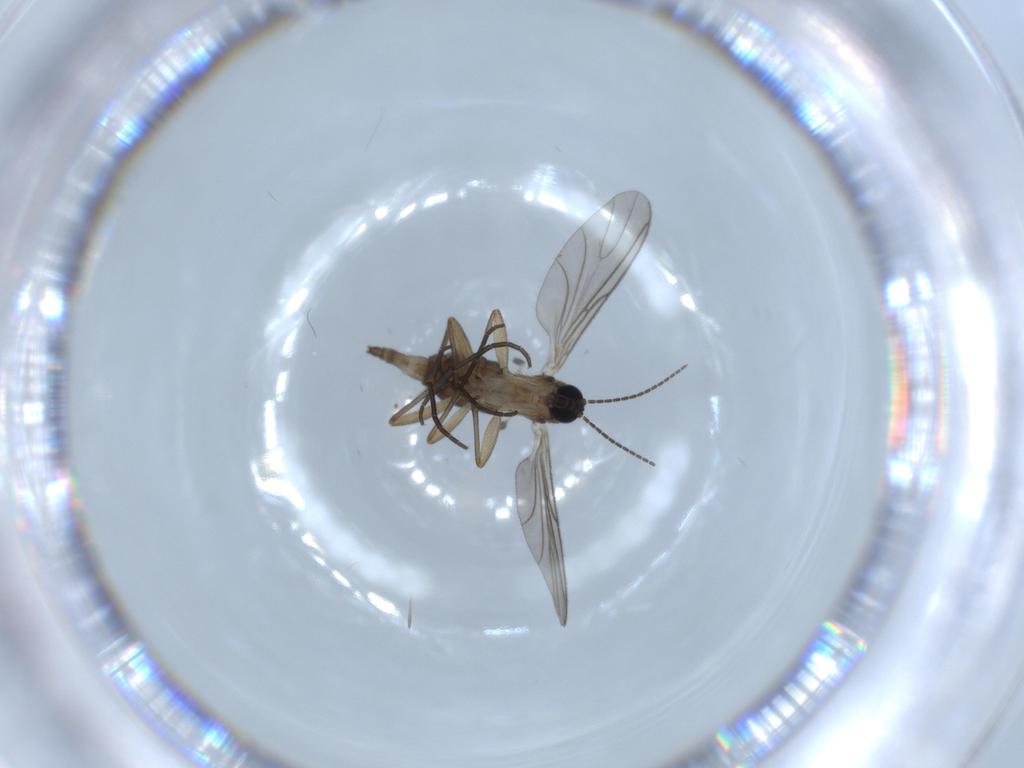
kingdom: Animalia
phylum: Arthropoda
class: Insecta
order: Diptera
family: Sciaridae
